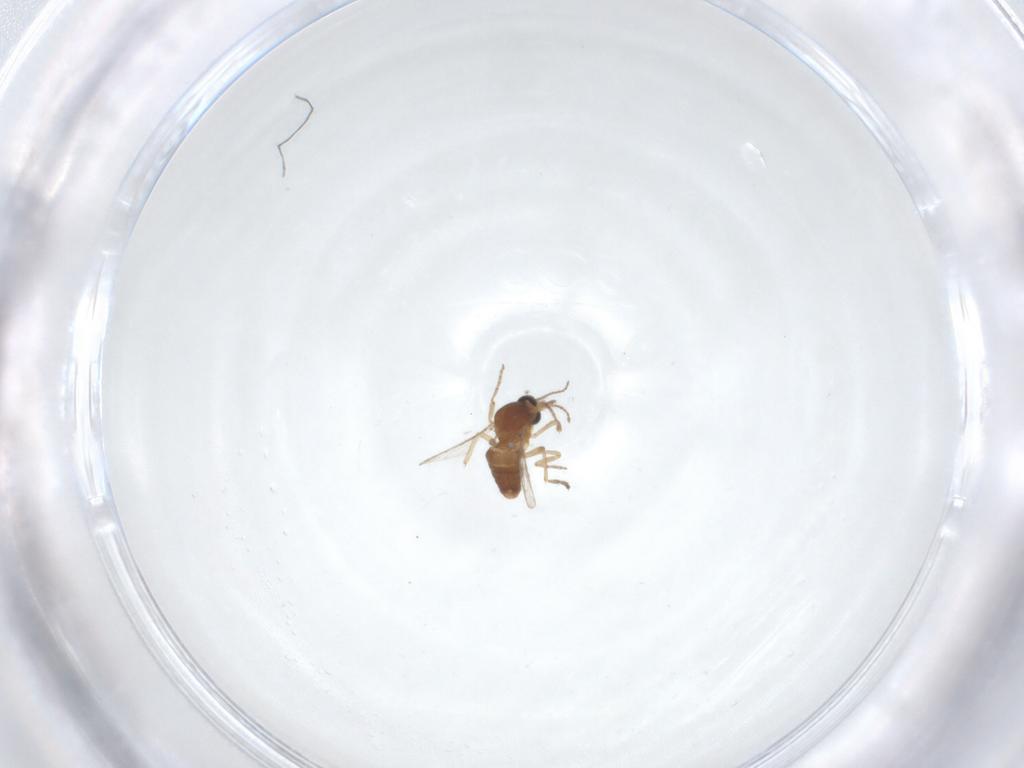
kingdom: Animalia
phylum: Arthropoda
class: Insecta
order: Diptera
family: Ceratopogonidae
